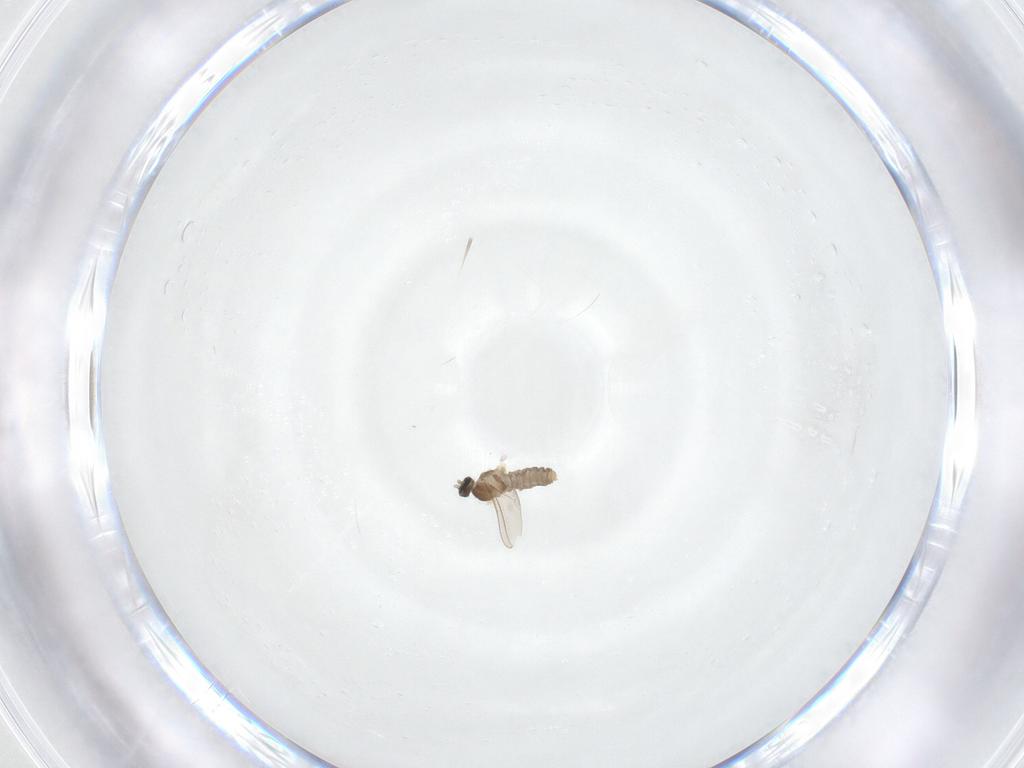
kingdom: Animalia
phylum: Arthropoda
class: Insecta
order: Diptera
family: Cecidomyiidae
